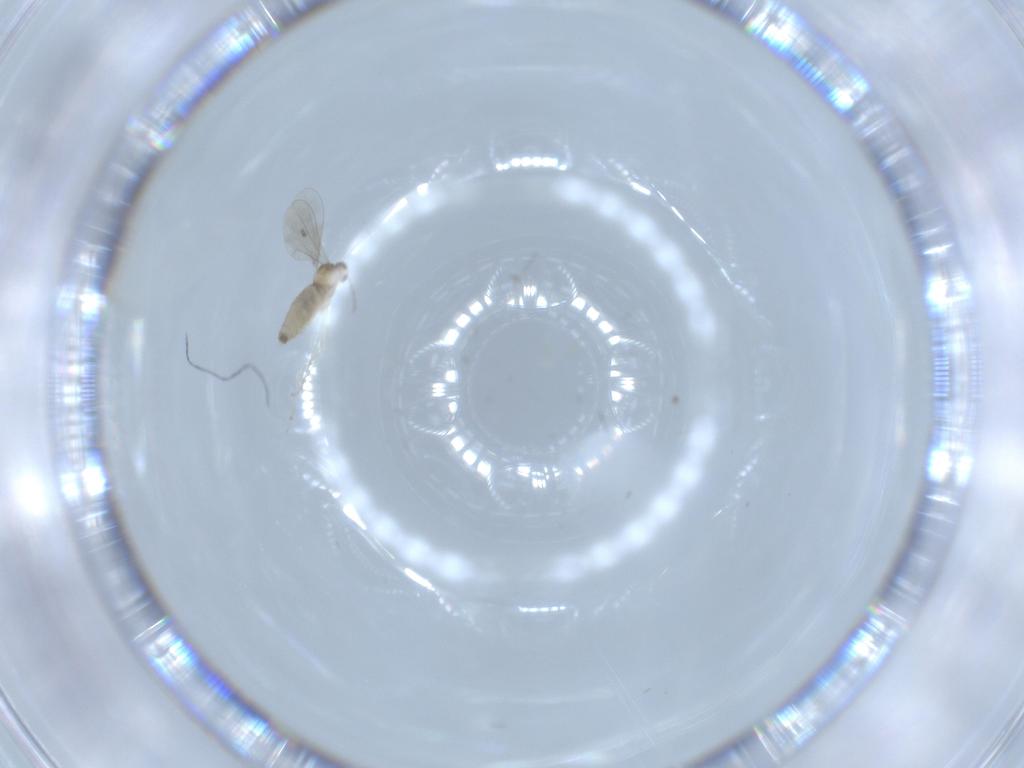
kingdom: Animalia
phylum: Arthropoda
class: Insecta
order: Diptera
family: Cecidomyiidae
